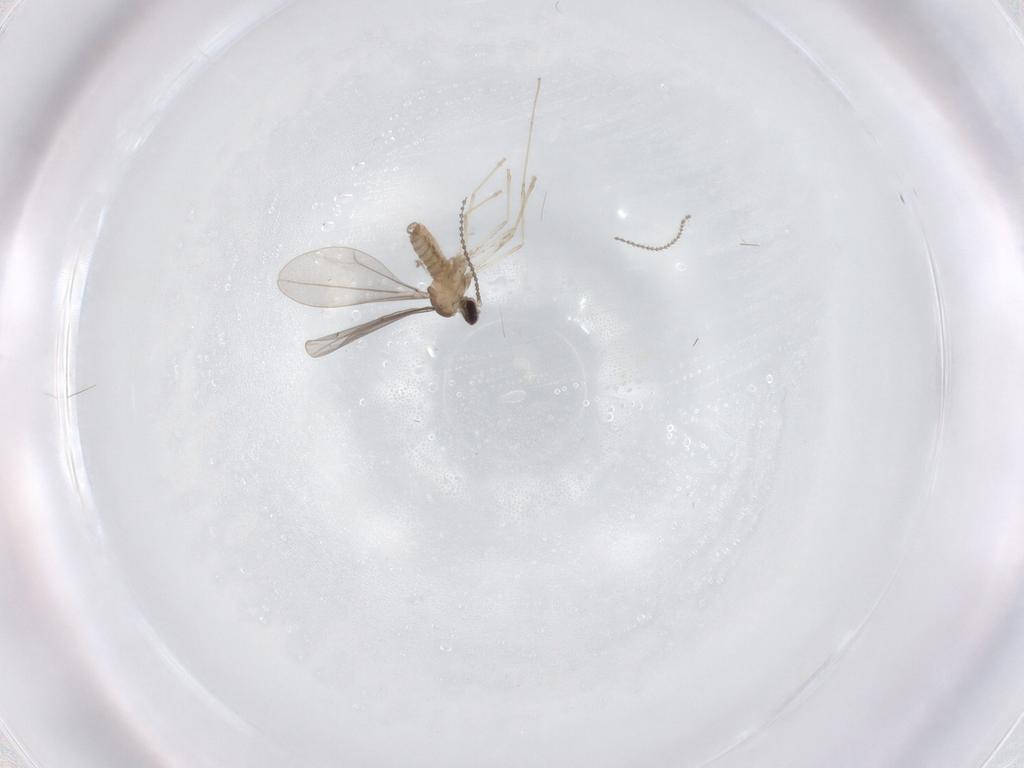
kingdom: Animalia
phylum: Arthropoda
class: Insecta
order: Diptera
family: Cecidomyiidae
